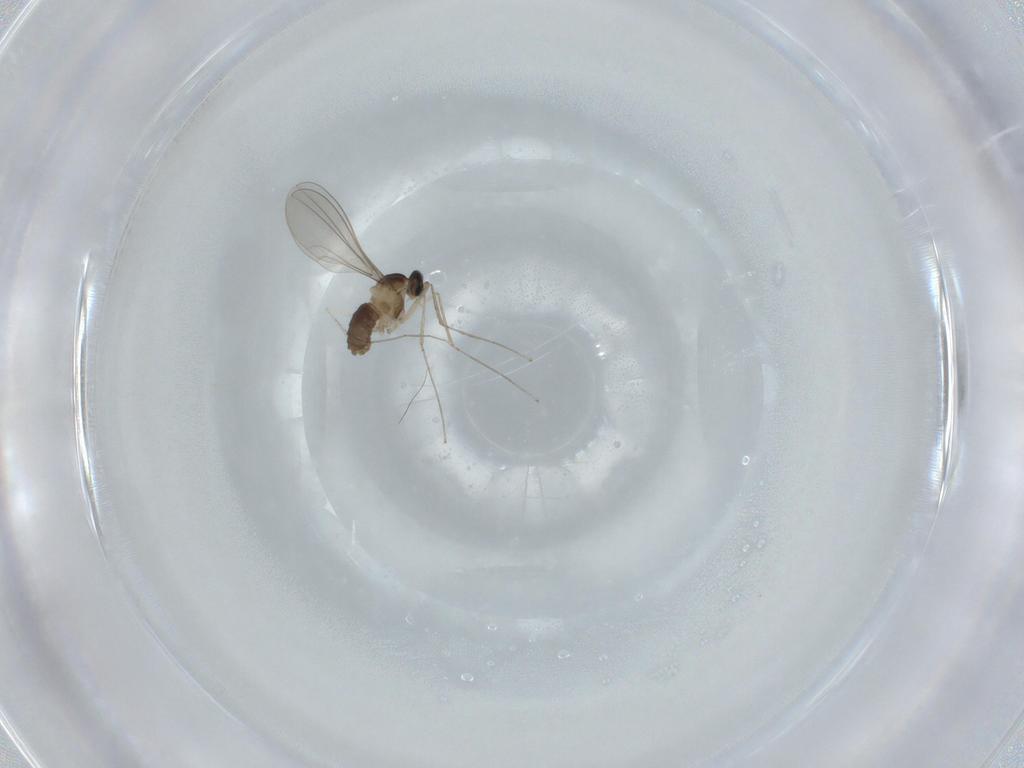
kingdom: Animalia
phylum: Arthropoda
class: Insecta
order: Diptera
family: Cecidomyiidae
